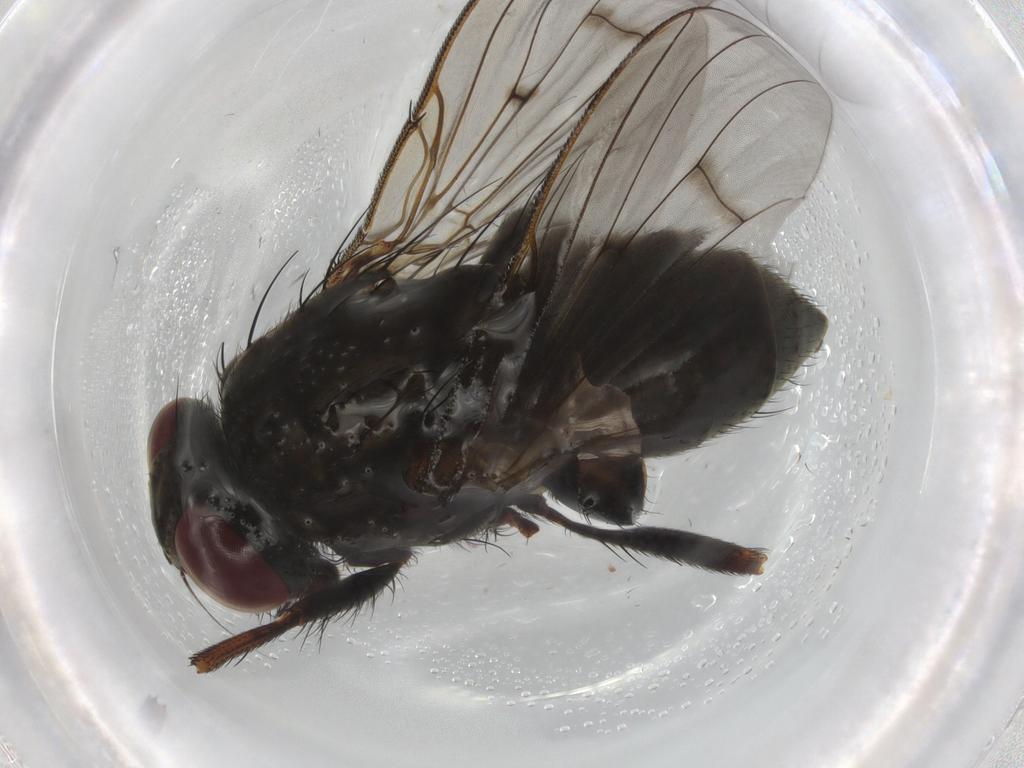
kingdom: Animalia
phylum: Arthropoda
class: Insecta
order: Diptera
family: Muscidae
